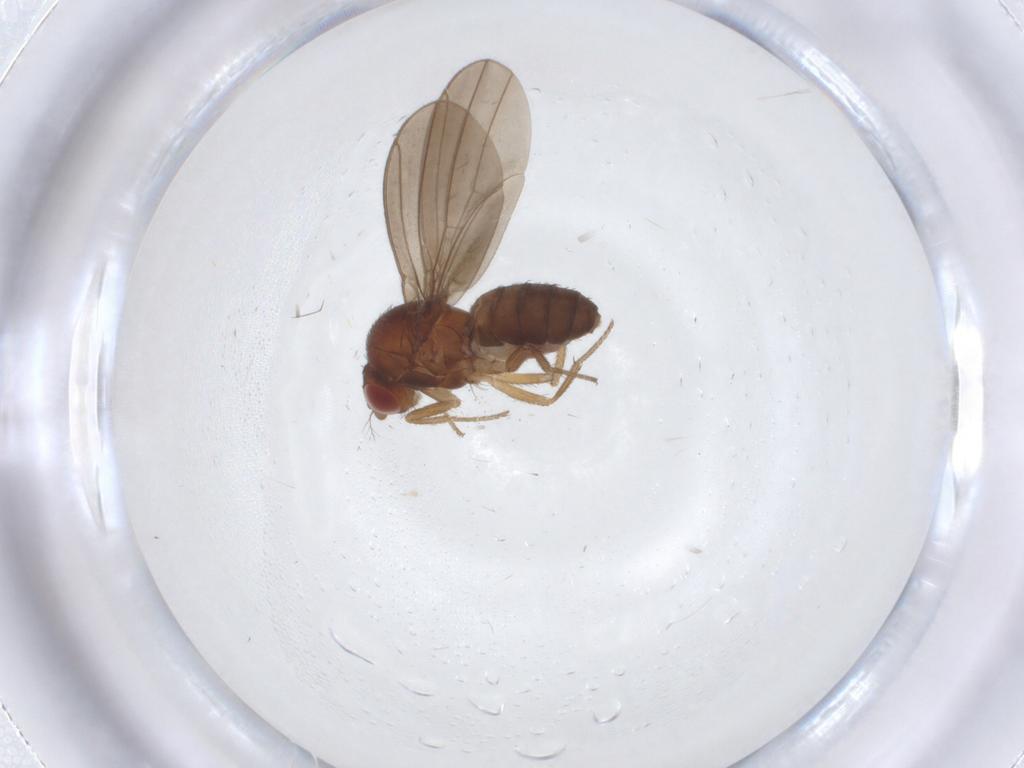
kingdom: Animalia
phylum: Arthropoda
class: Insecta
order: Diptera
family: Drosophilidae
